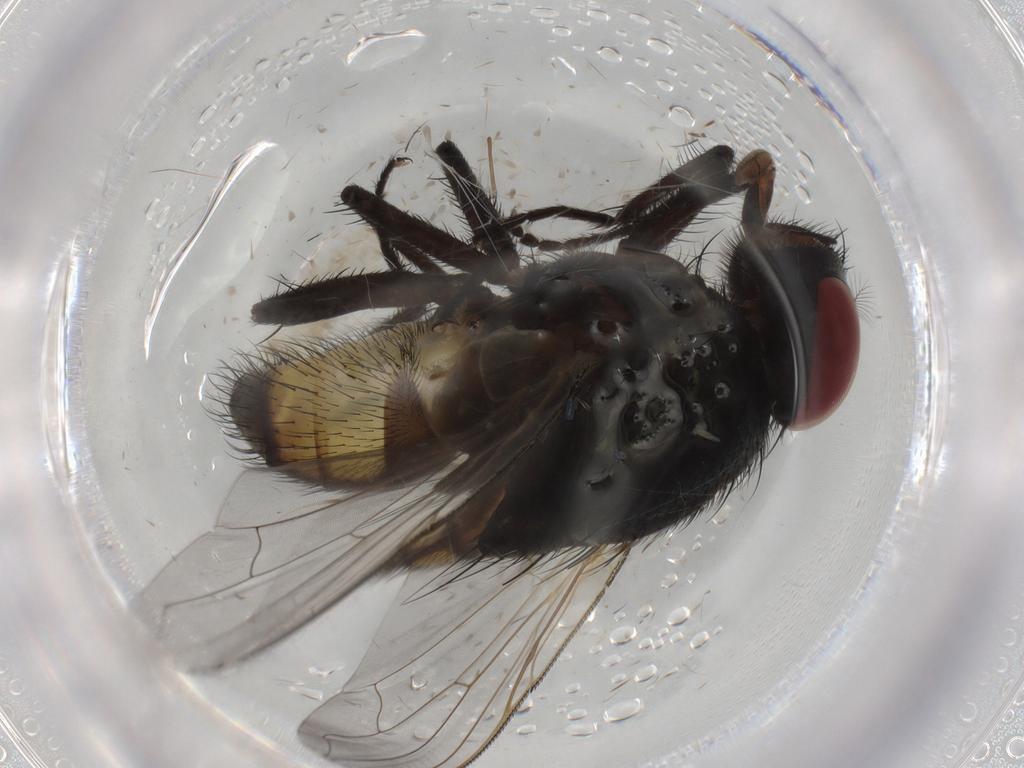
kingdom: Animalia
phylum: Arthropoda
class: Insecta
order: Diptera
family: Muscidae
